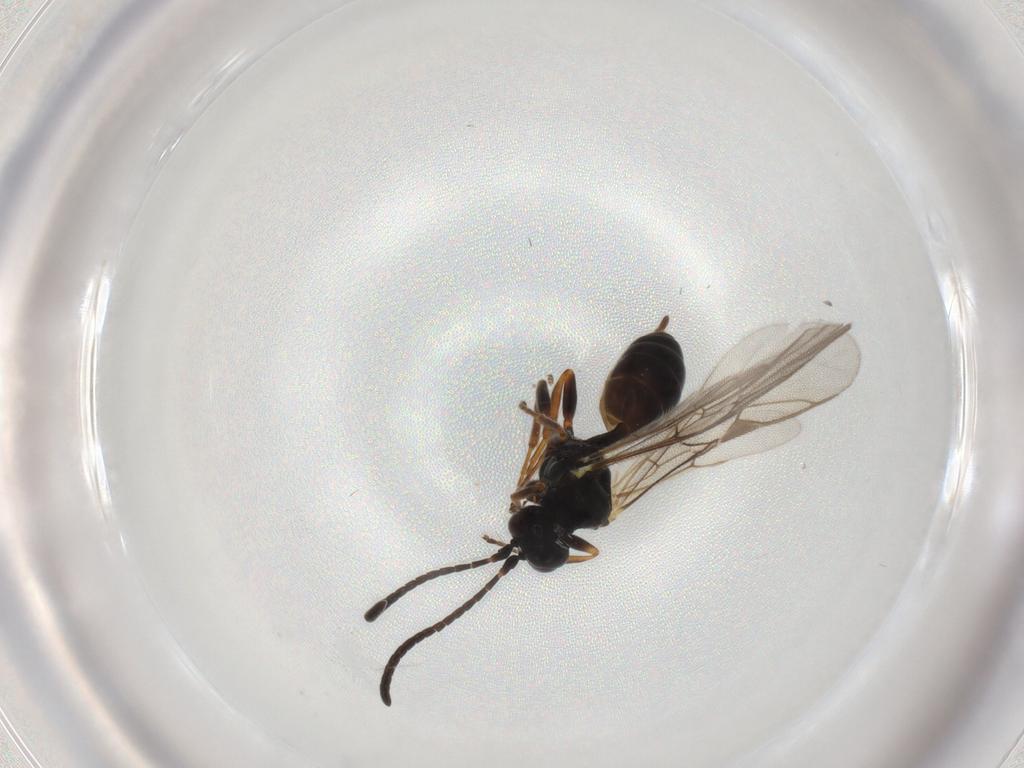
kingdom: Animalia
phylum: Arthropoda
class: Insecta
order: Hymenoptera
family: Ichneumonidae
